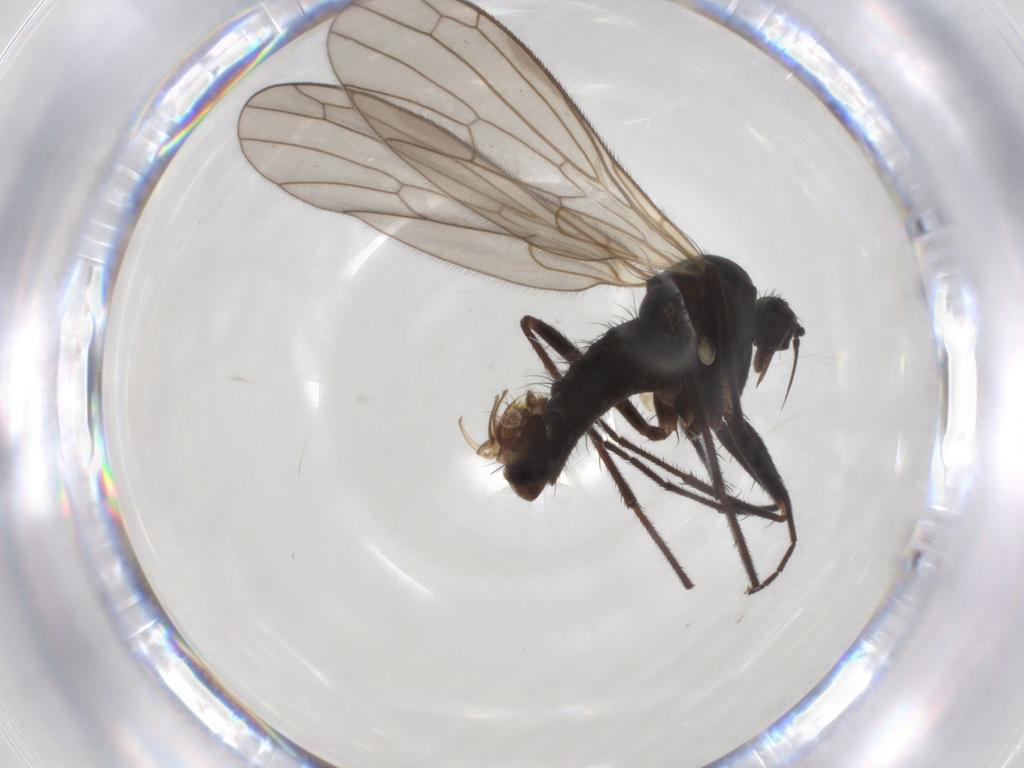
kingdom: Animalia
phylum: Arthropoda
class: Insecta
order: Diptera
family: Empididae
